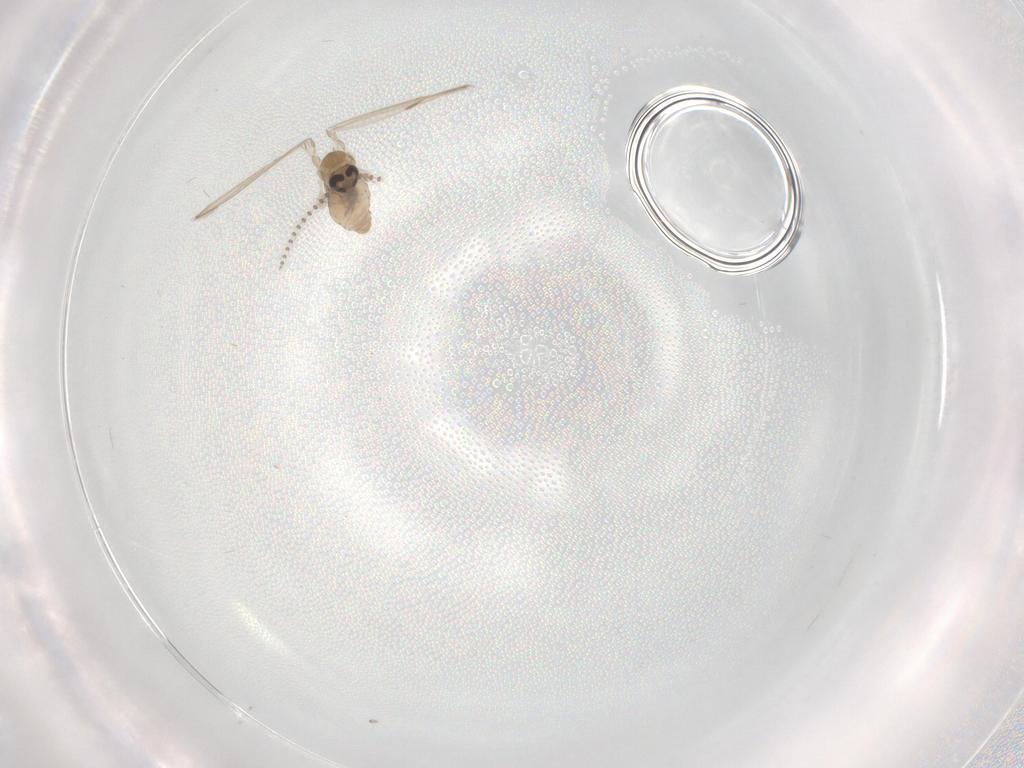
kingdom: Animalia
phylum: Arthropoda
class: Insecta
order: Diptera
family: Psychodidae
